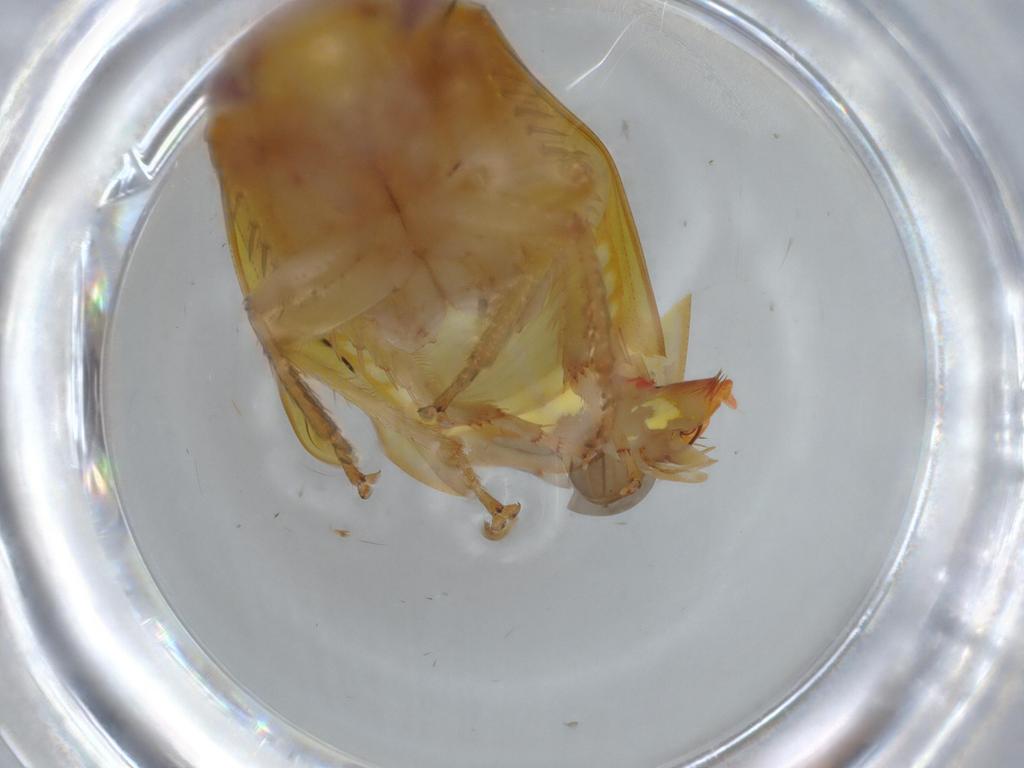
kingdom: Animalia
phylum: Arthropoda
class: Insecta
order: Hemiptera
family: Cicadellidae
